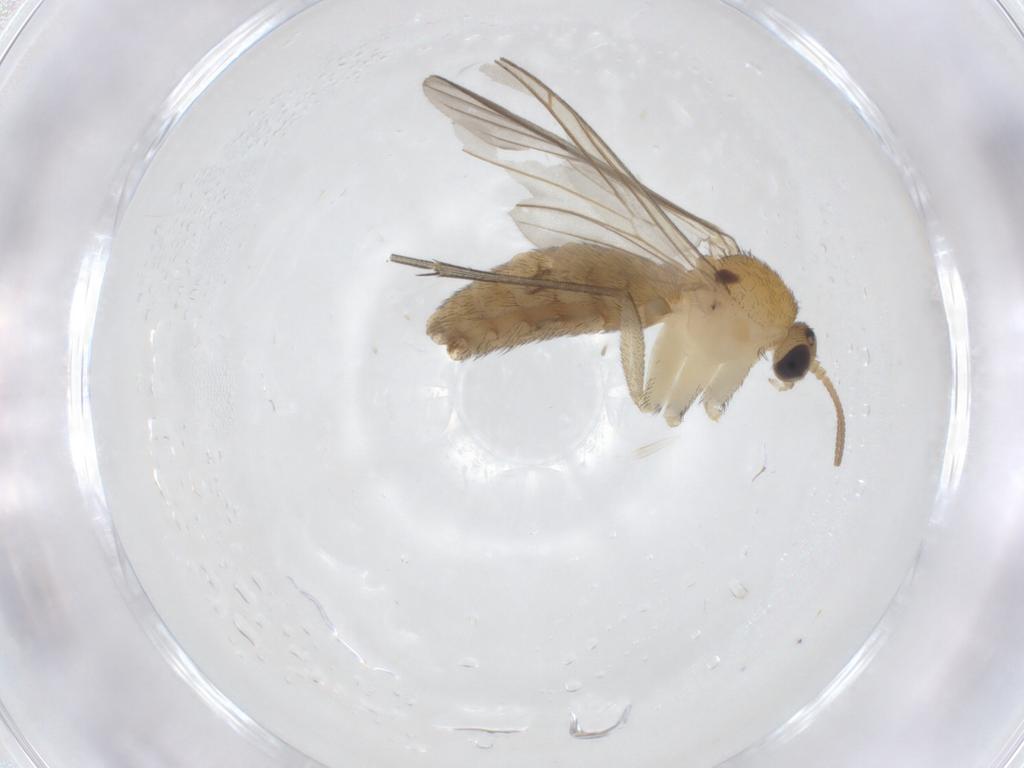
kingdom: Animalia
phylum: Arthropoda
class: Insecta
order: Diptera
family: Keroplatidae
